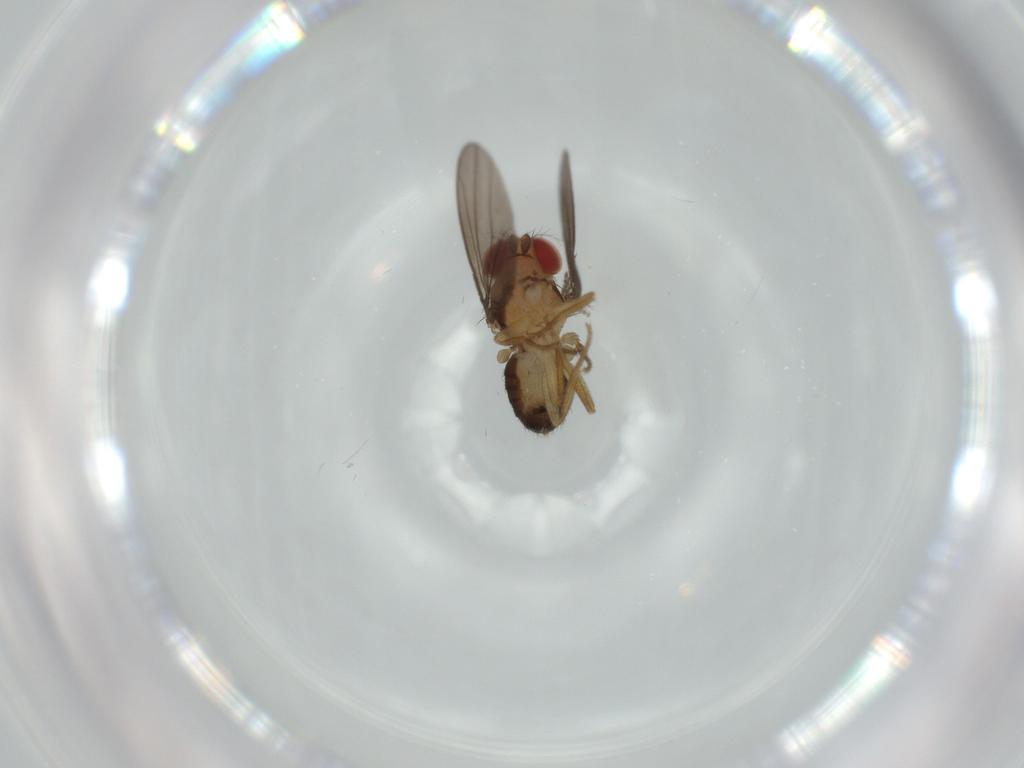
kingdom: Animalia
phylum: Arthropoda
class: Insecta
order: Diptera
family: Drosophilidae
